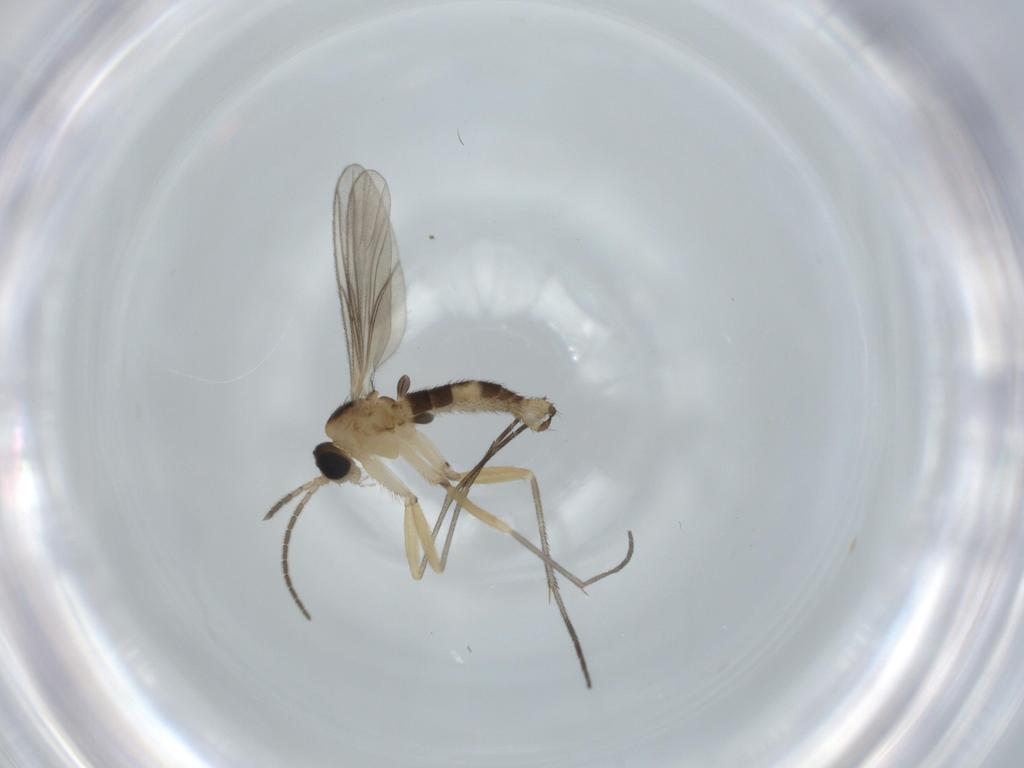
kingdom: Animalia
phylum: Arthropoda
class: Insecta
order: Diptera
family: Sciaridae
